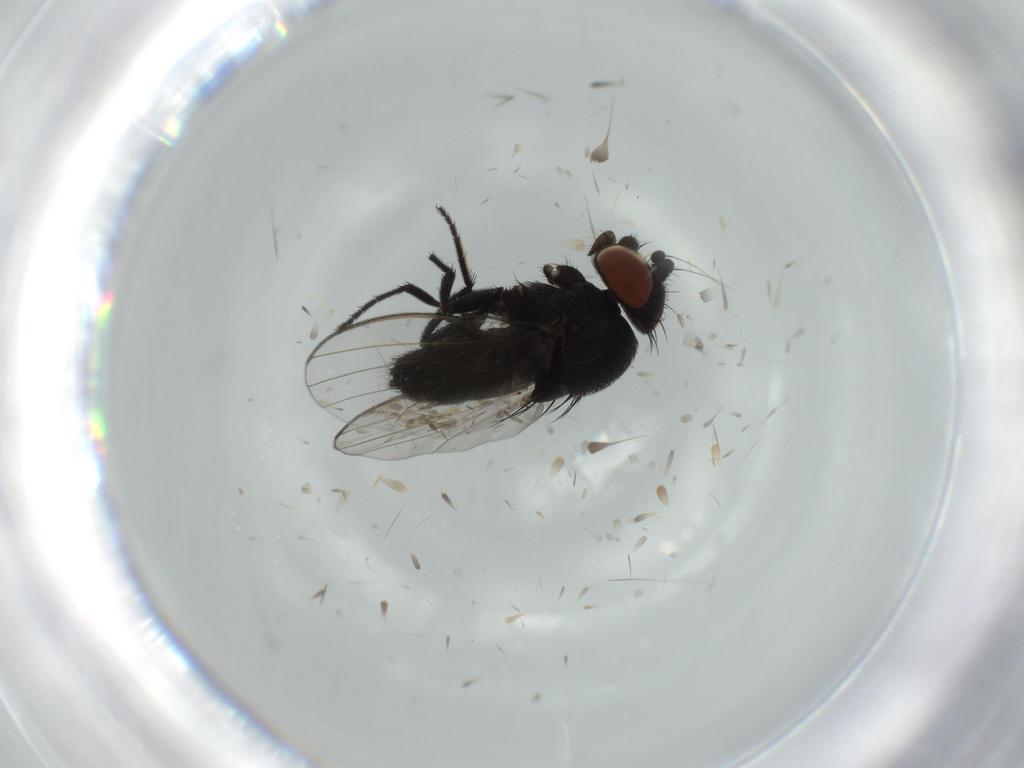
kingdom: Animalia
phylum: Arthropoda
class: Insecta
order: Diptera
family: Milichiidae
